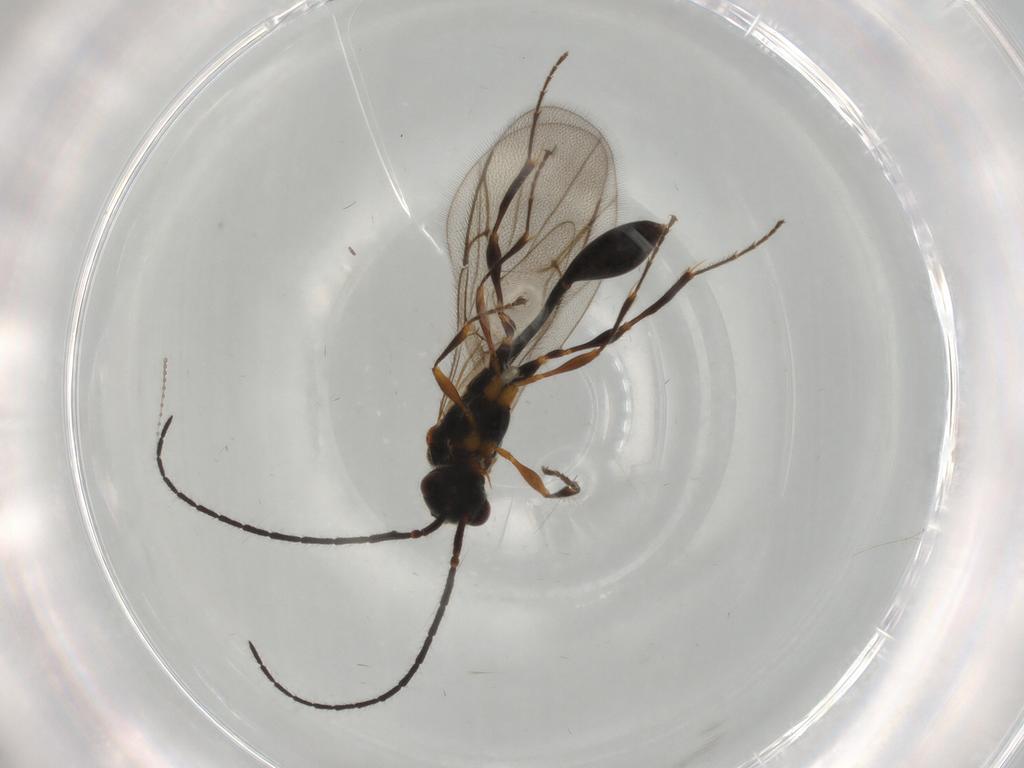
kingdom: Animalia
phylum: Arthropoda
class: Insecta
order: Hymenoptera
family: Diapriidae
